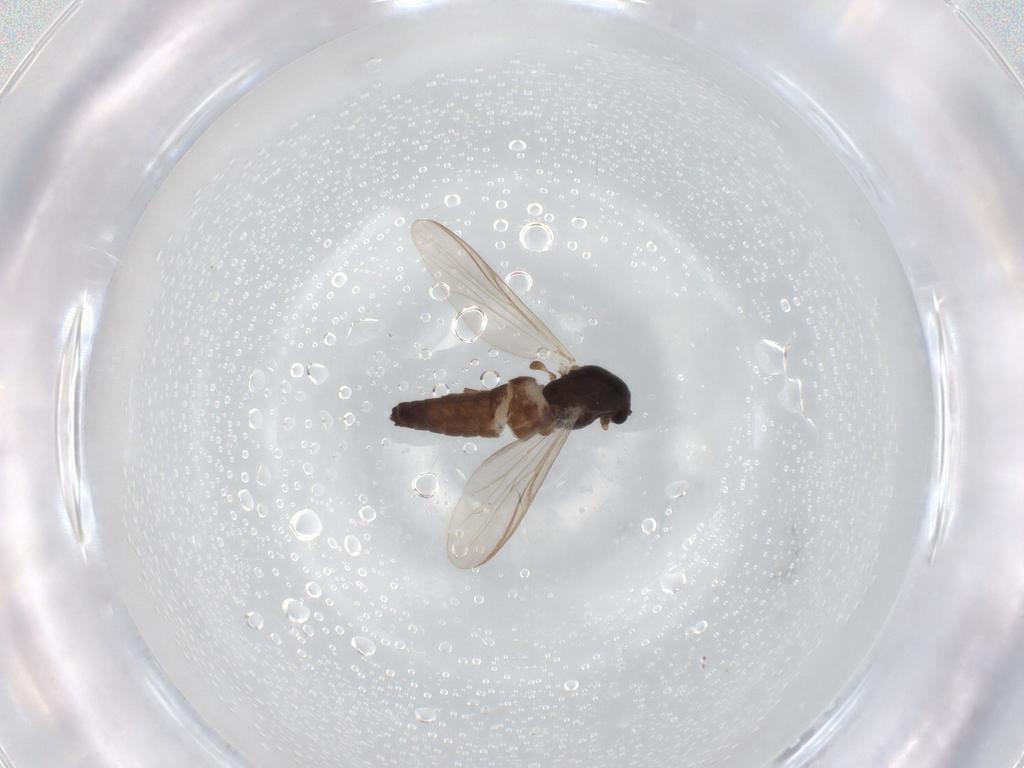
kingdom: Animalia
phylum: Arthropoda
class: Insecta
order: Diptera
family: Chironomidae
